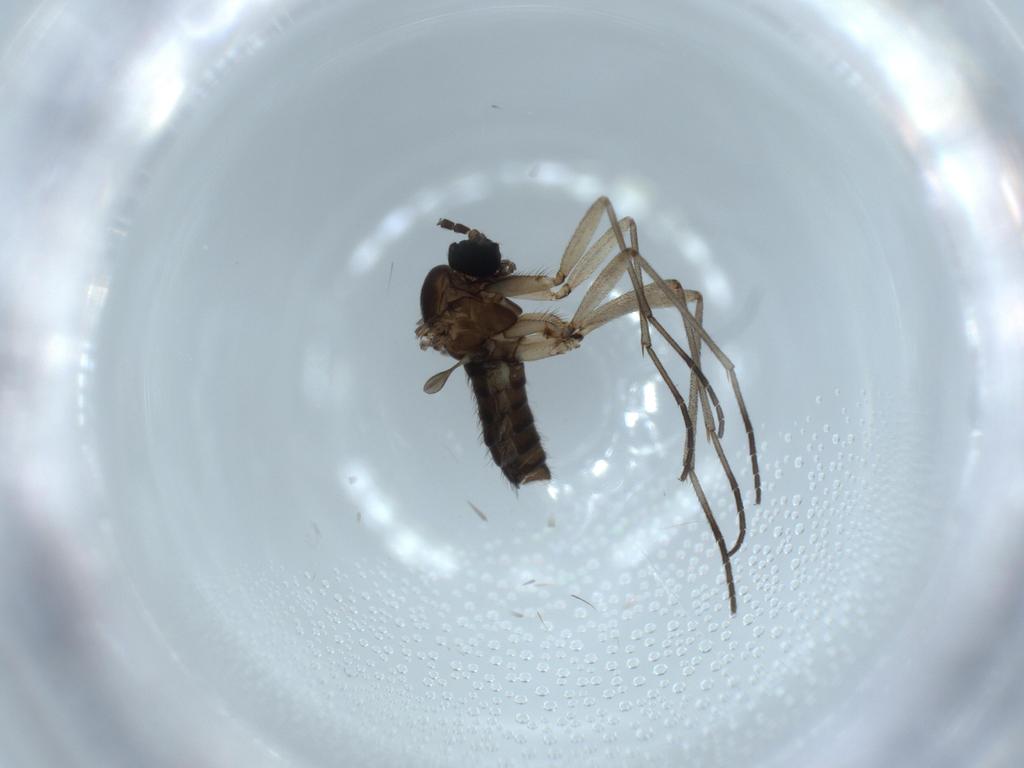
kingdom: Animalia
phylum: Arthropoda
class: Insecta
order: Diptera
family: Sciaridae
